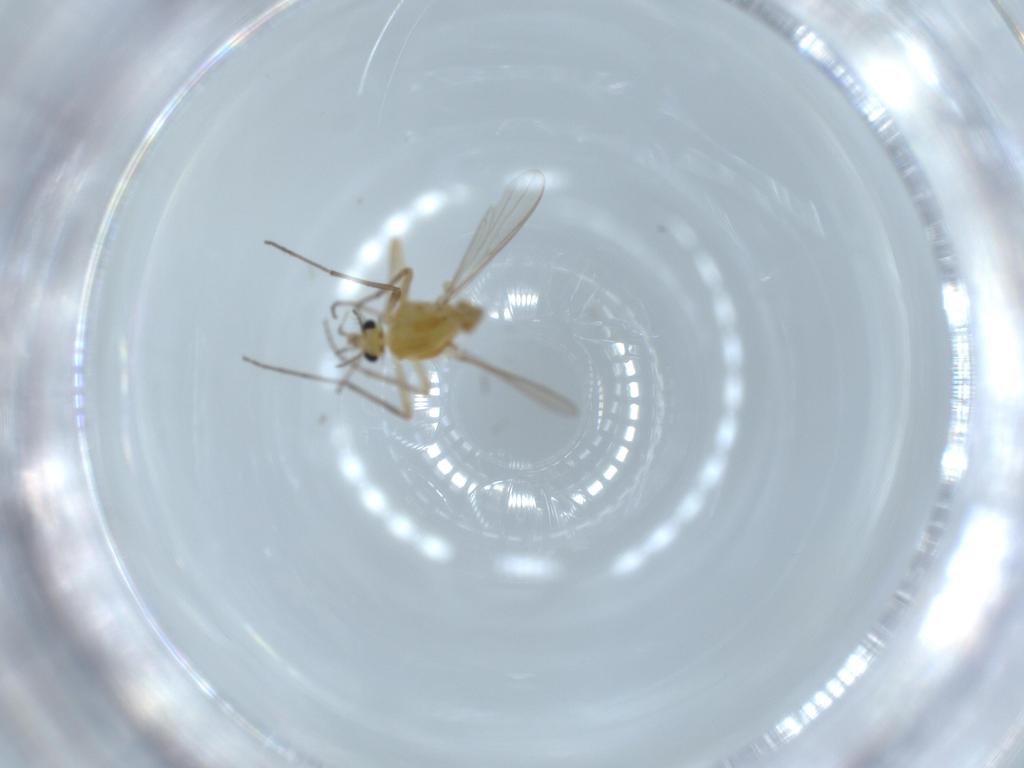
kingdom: Animalia
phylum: Arthropoda
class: Insecta
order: Diptera
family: Chironomidae
